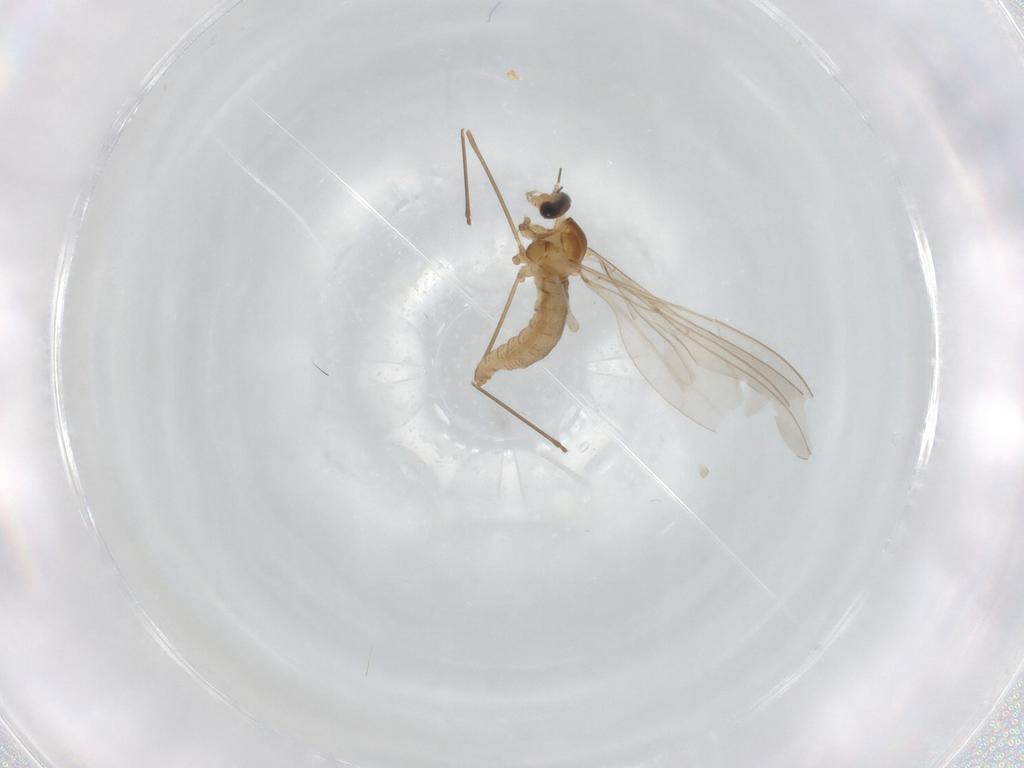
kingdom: Animalia
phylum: Arthropoda
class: Insecta
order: Diptera
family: Cecidomyiidae
